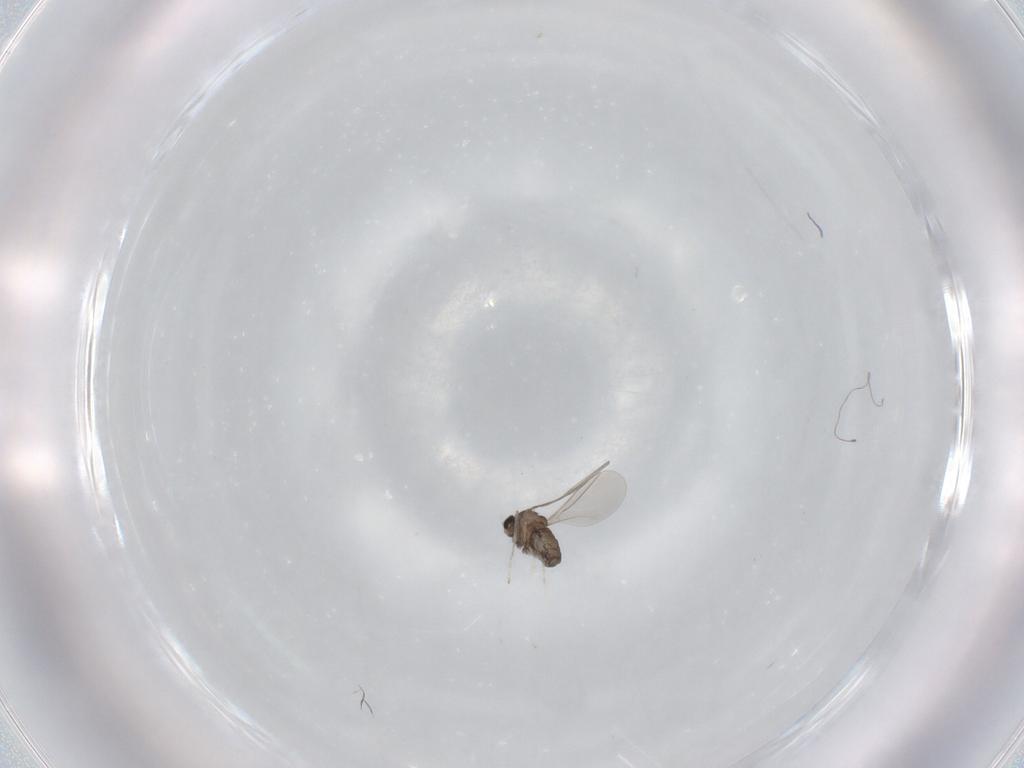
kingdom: Animalia
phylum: Arthropoda
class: Insecta
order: Diptera
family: Cecidomyiidae
